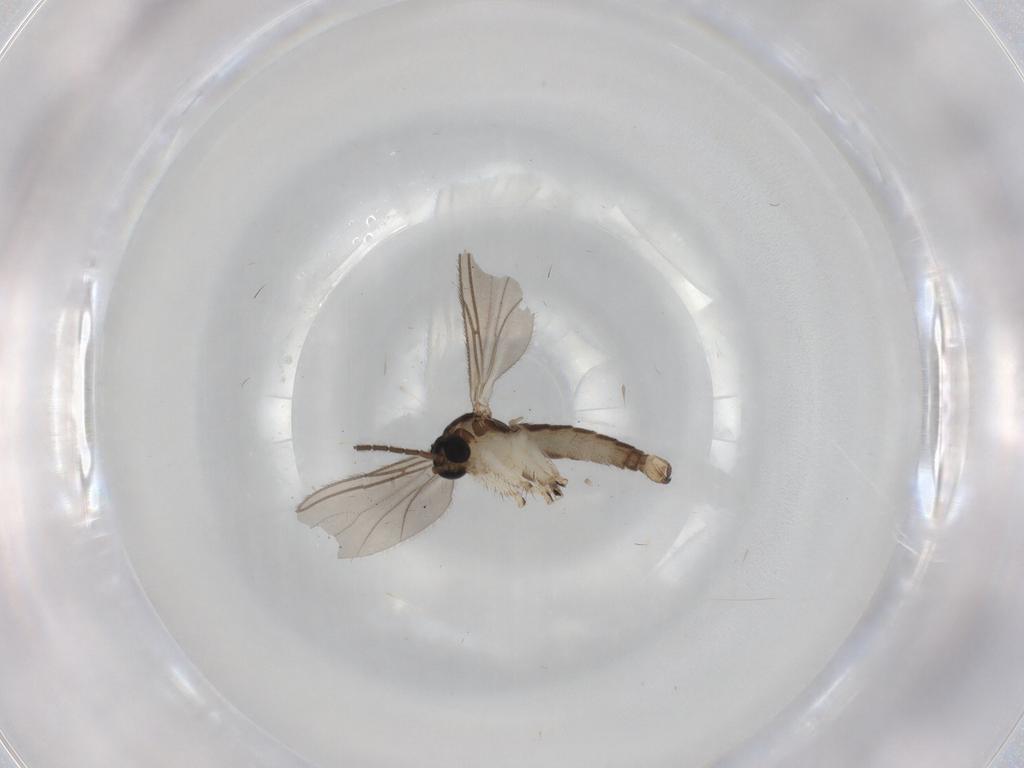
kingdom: Animalia
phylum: Arthropoda
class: Insecta
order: Diptera
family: Sciaridae
